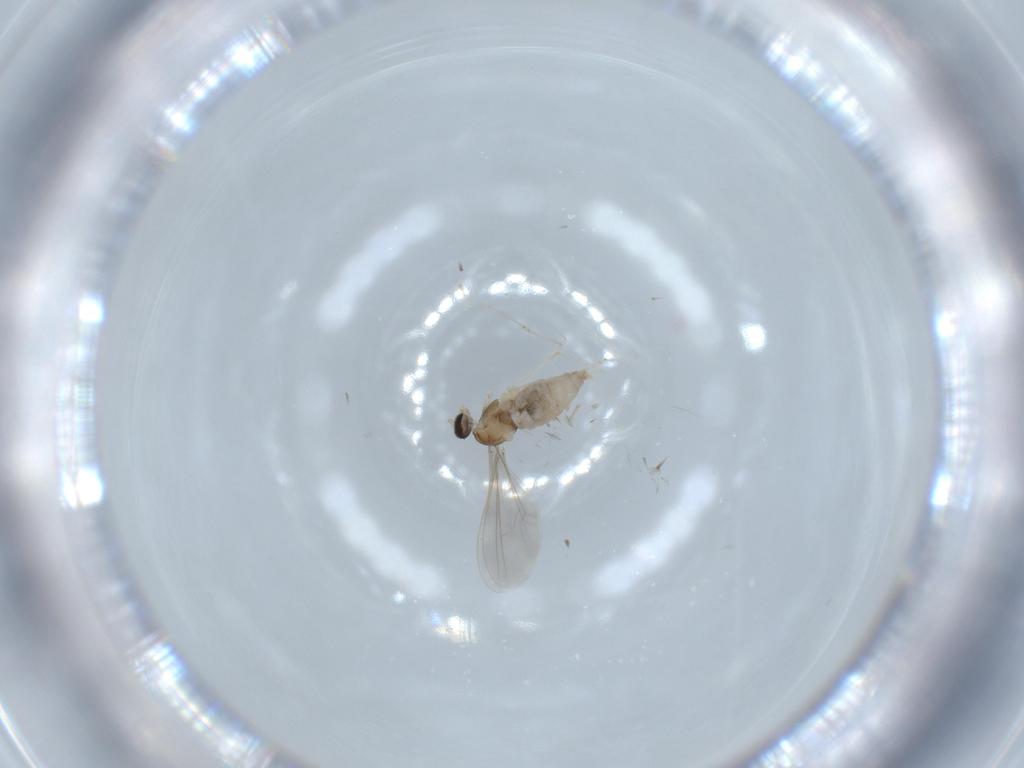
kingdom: Animalia
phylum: Arthropoda
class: Insecta
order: Diptera
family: Cecidomyiidae
